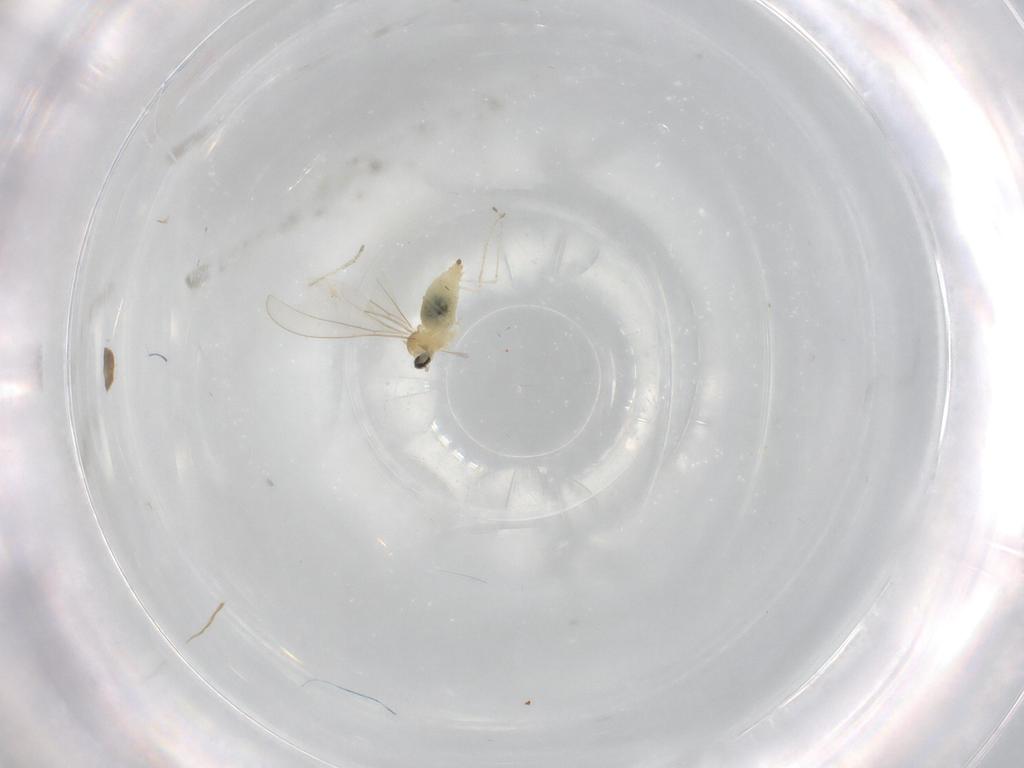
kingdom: Animalia
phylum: Arthropoda
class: Insecta
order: Diptera
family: Cecidomyiidae
